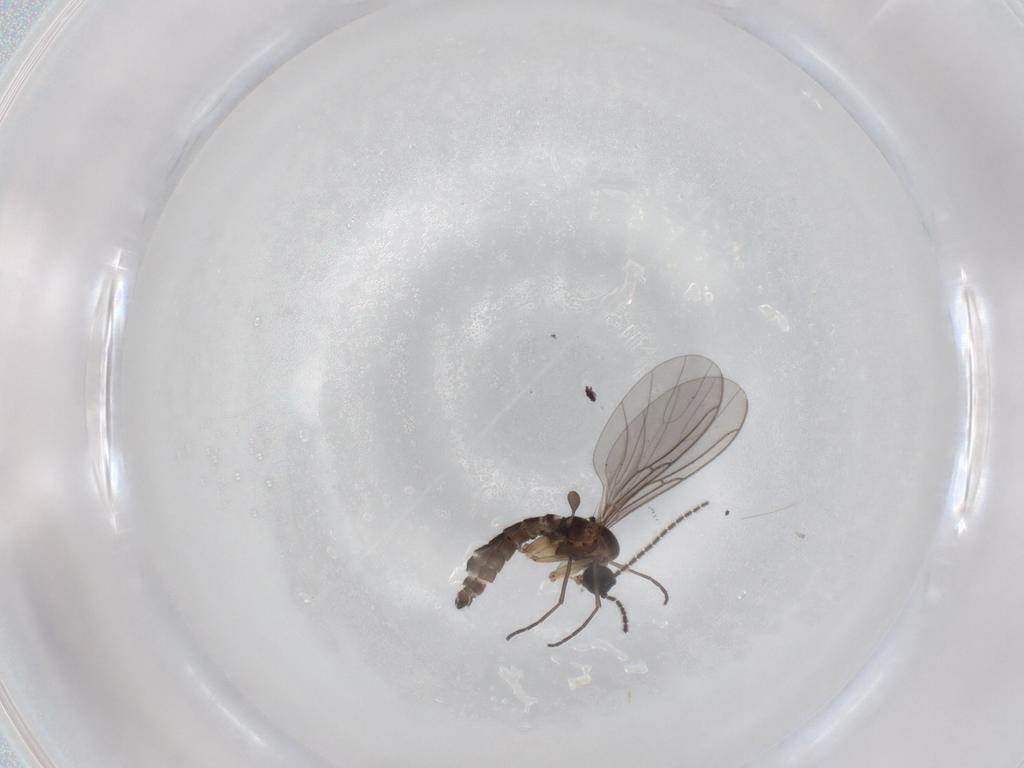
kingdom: Animalia
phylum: Arthropoda
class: Insecta
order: Diptera
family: Sciaridae
